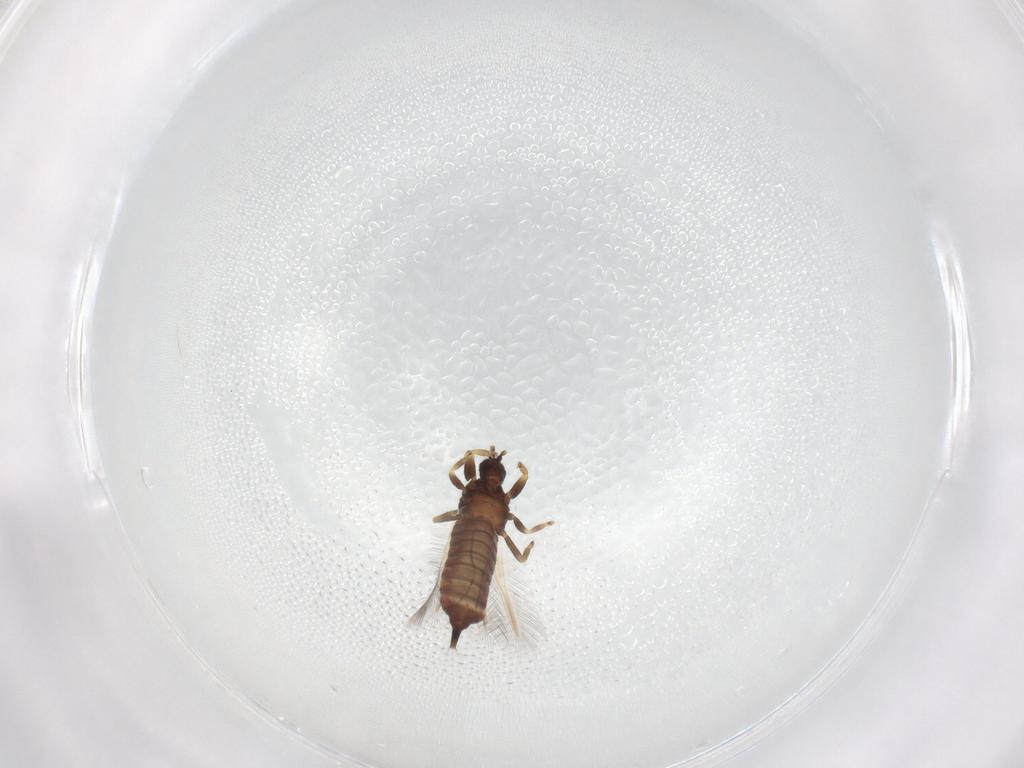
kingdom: Animalia
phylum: Arthropoda
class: Insecta
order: Thysanoptera
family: Phlaeothripidae
